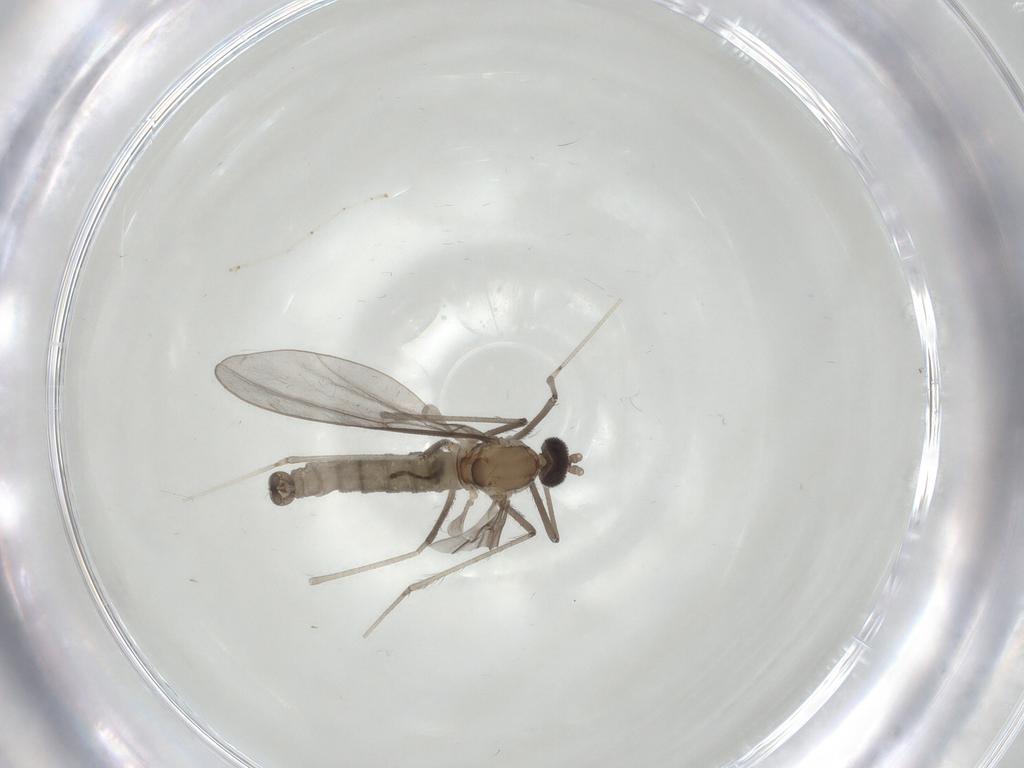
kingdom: Animalia
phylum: Arthropoda
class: Insecta
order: Diptera
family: Cecidomyiidae
